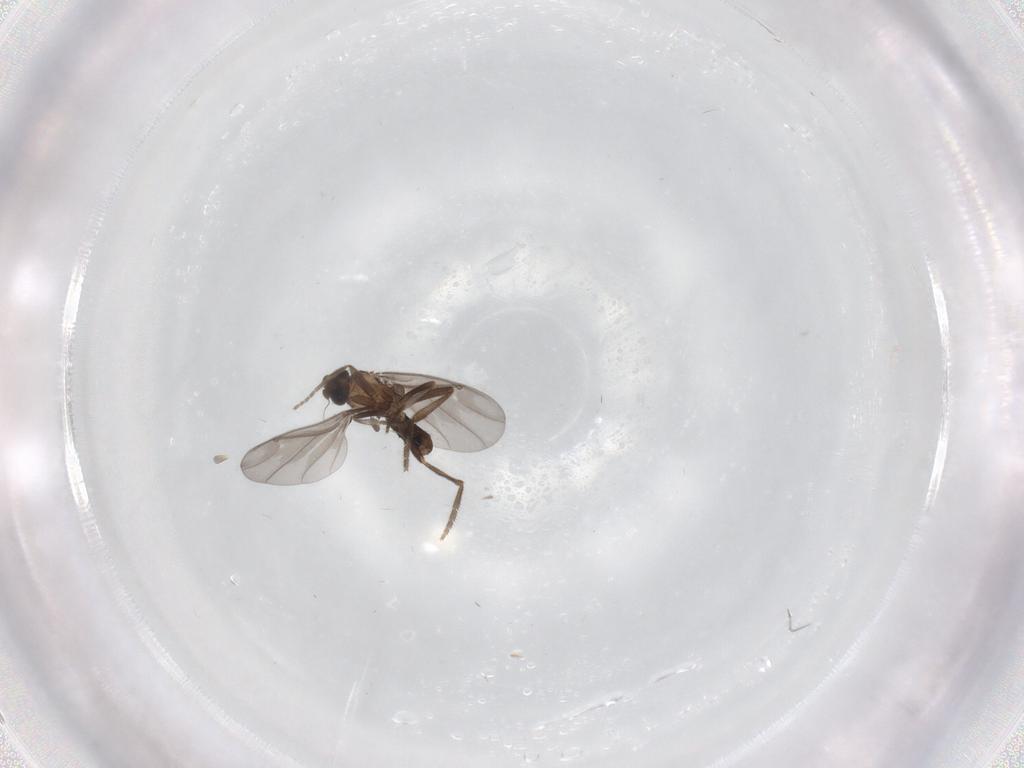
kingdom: Animalia
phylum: Arthropoda
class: Insecta
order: Diptera
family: Phoridae
